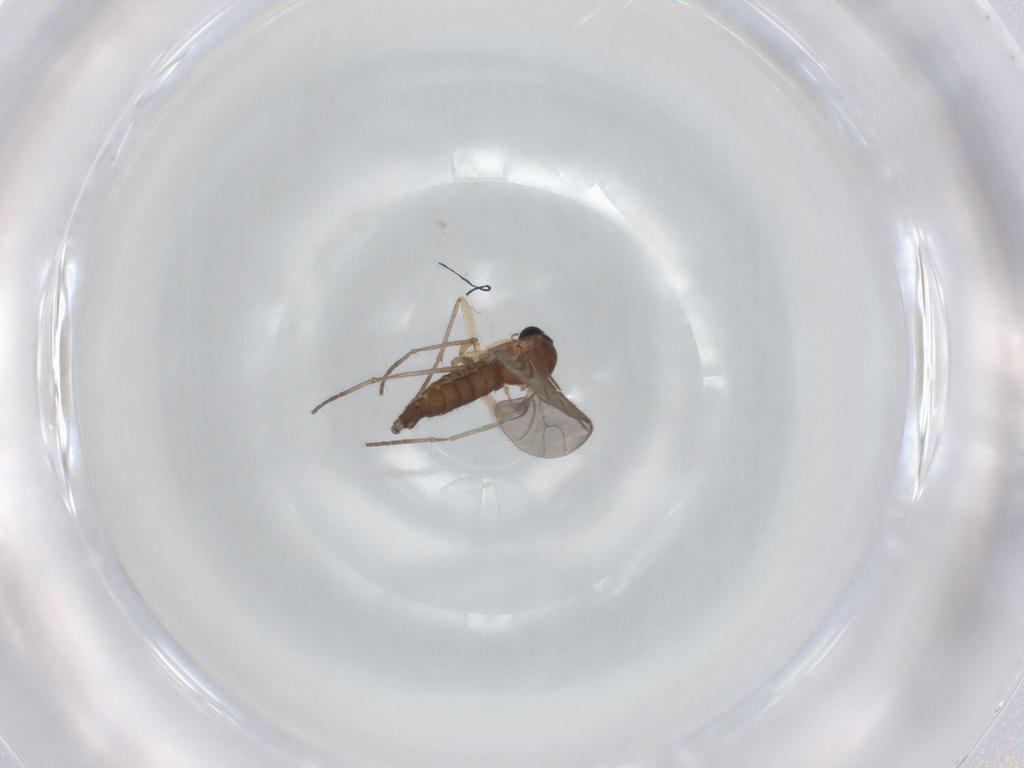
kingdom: Animalia
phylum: Arthropoda
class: Insecta
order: Diptera
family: Sciaridae
